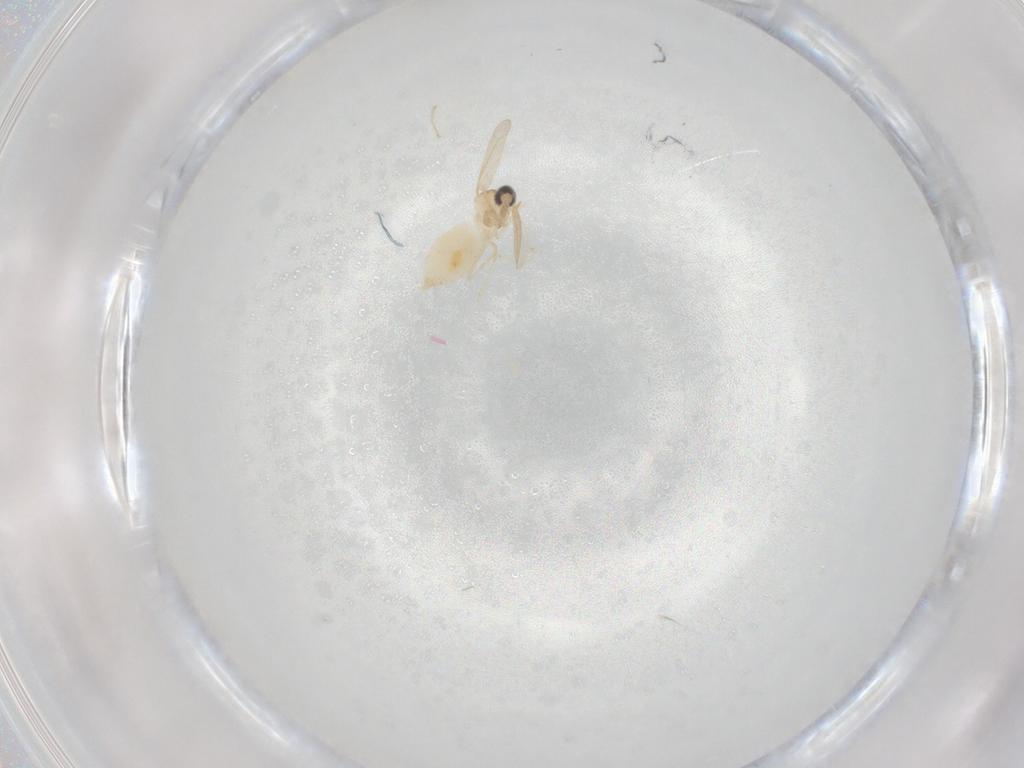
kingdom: Animalia
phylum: Arthropoda
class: Insecta
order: Diptera
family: Cecidomyiidae
